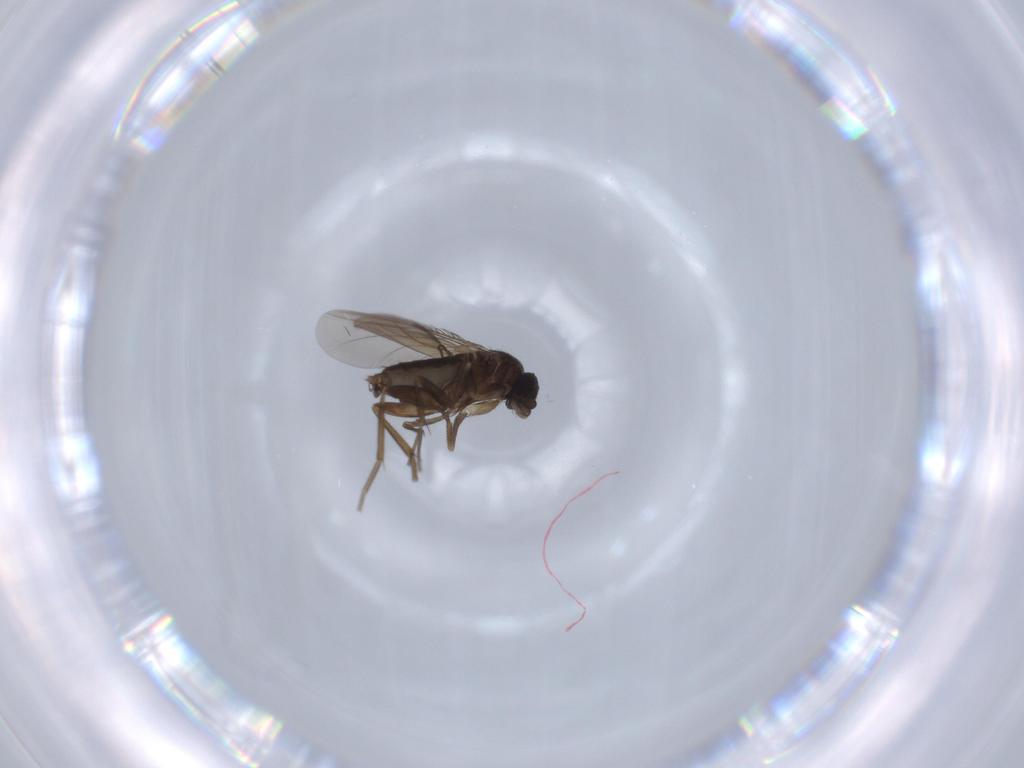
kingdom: Animalia
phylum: Arthropoda
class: Insecta
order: Diptera
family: Phoridae
